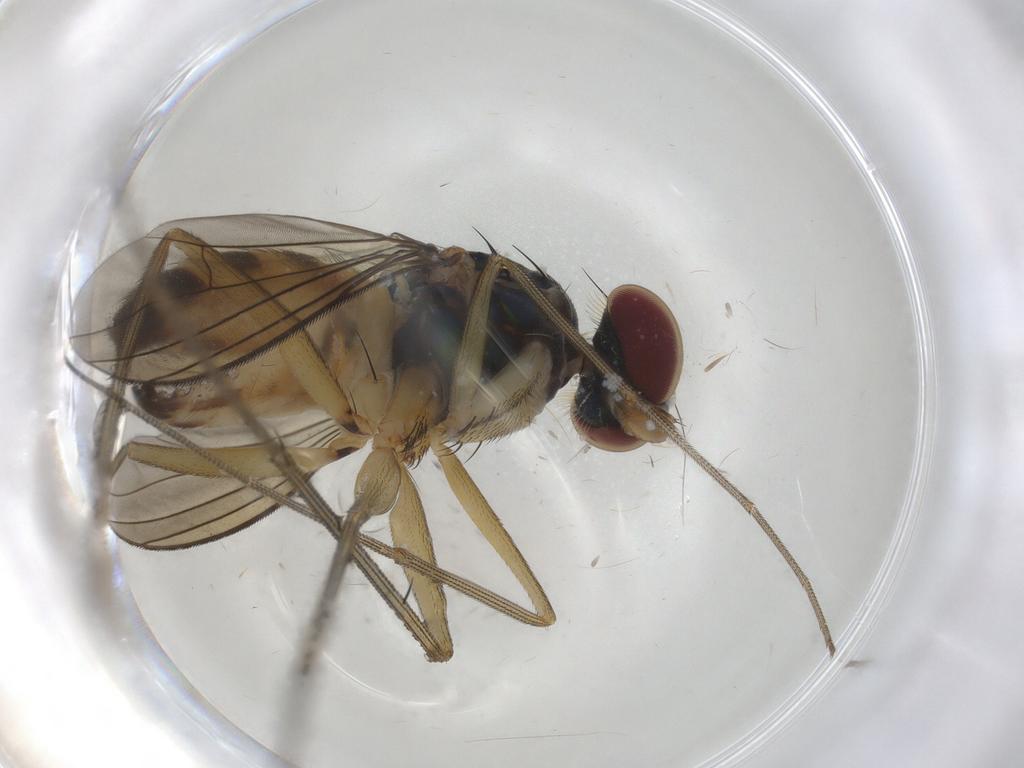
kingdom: Animalia
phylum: Arthropoda
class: Insecta
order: Diptera
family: Dolichopodidae
